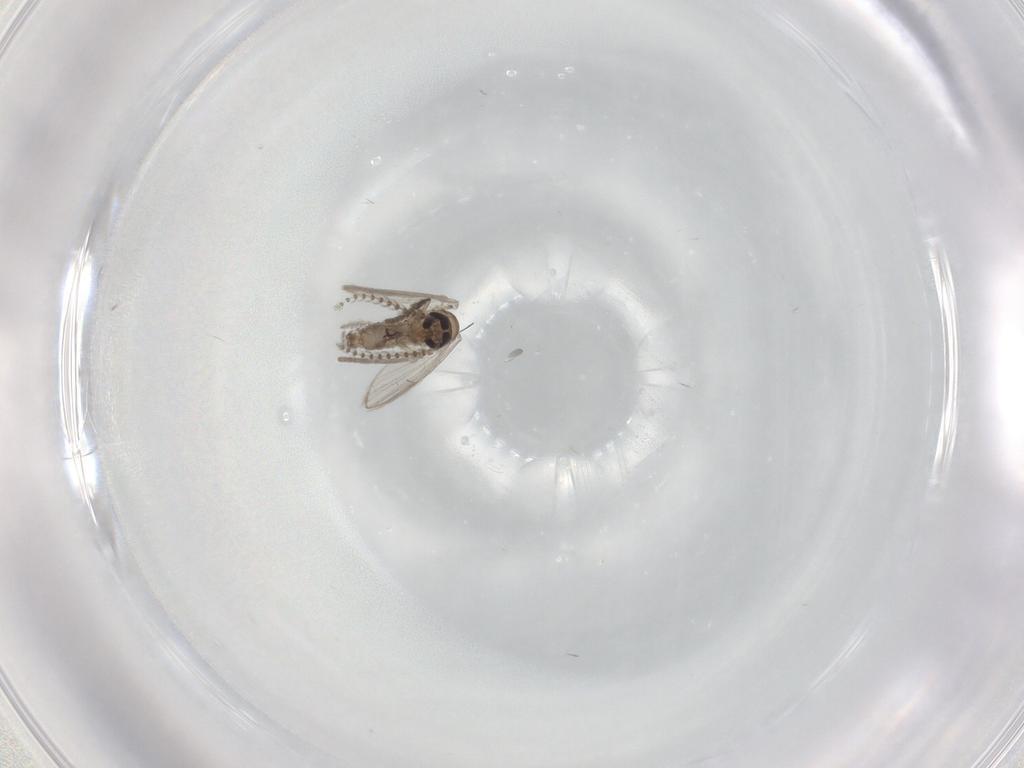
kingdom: Animalia
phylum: Arthropoda
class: Insecta
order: Diptera
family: Psychodidae
